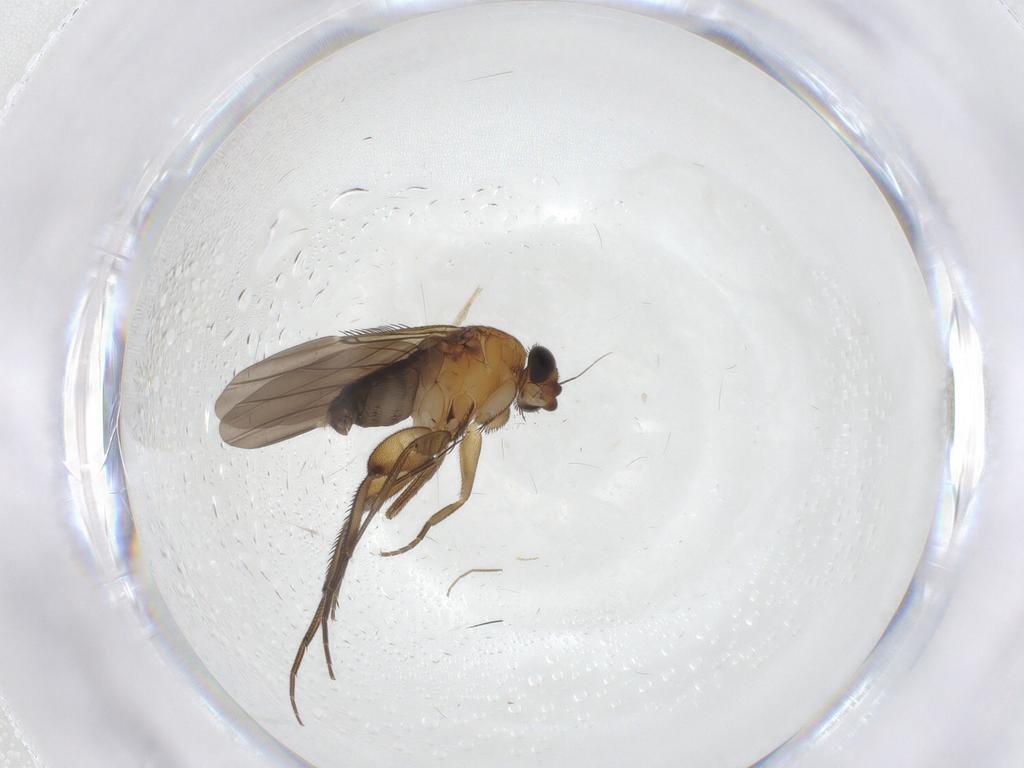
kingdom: Animalia
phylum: Arthropoda
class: Insecta
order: Diptera
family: Phoridae
